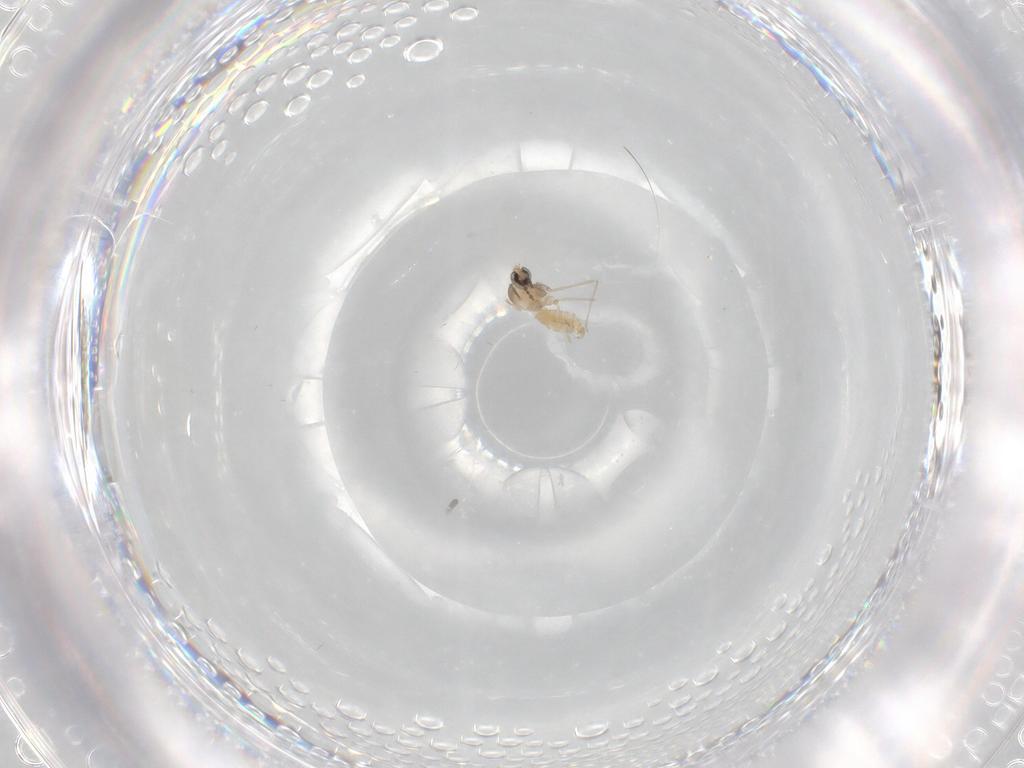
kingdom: Animalia
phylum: Arthropoda
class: Insecta
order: Diptera
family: Cecidomyiidae
